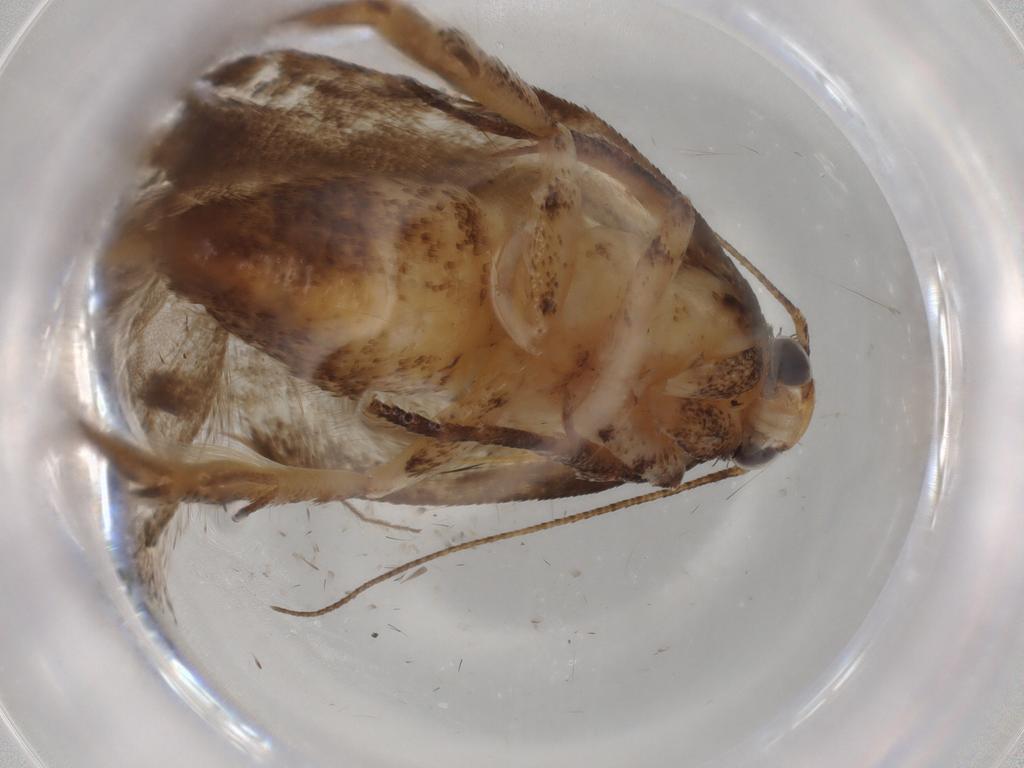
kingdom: Animalia
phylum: Arthropoda
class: Insecta
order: Lepidoptera
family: Gelechiidae
